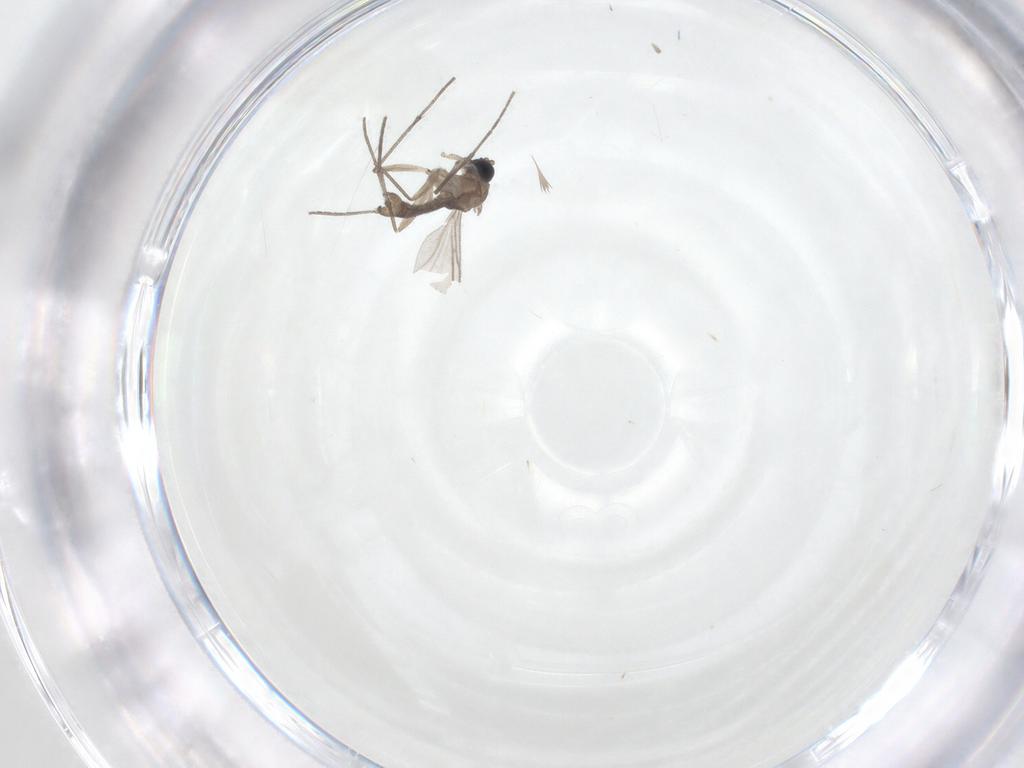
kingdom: Animalia
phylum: Arthropoda
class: Insecta
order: Diptera
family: Sciaridae
